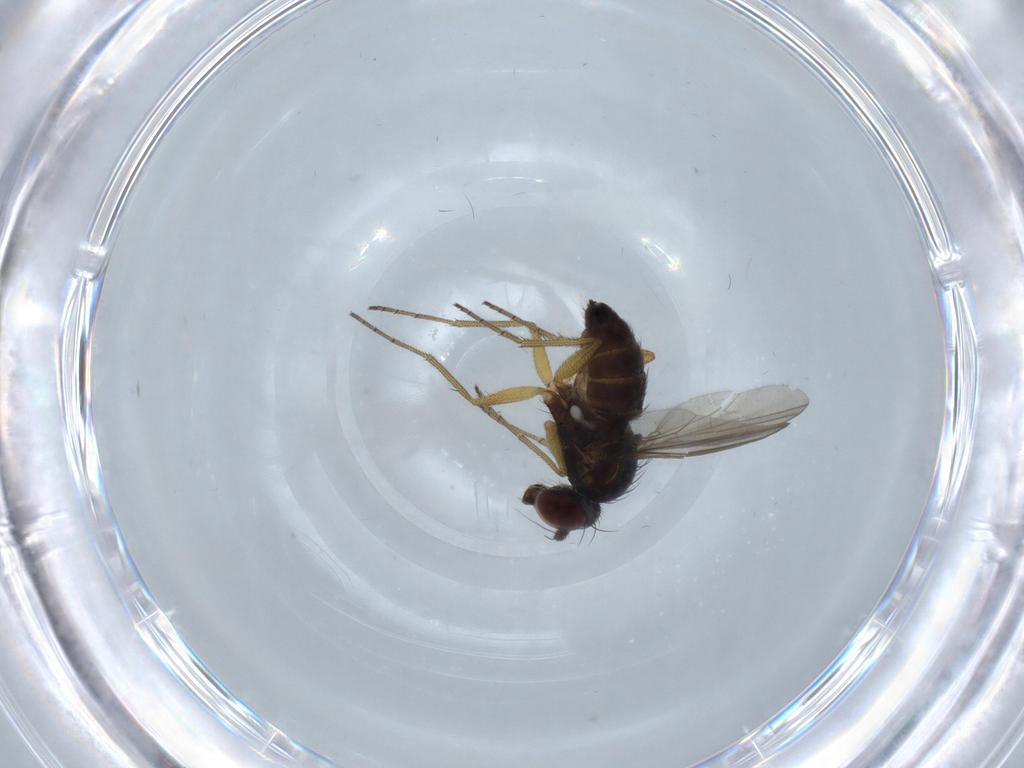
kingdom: Animalia
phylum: Arthropoda
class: Insecta
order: Diptera
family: Dolichopodidae
